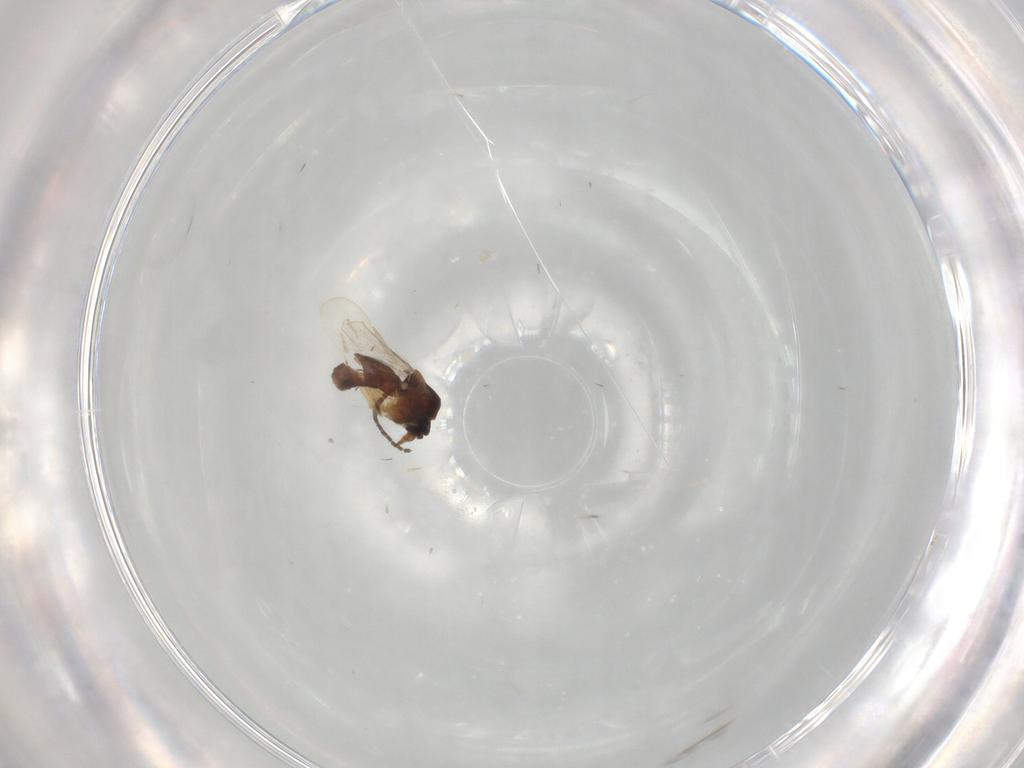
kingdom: Animalia
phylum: Arthropoda
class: Insecta
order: Diptera
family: Ceratopogonidae
